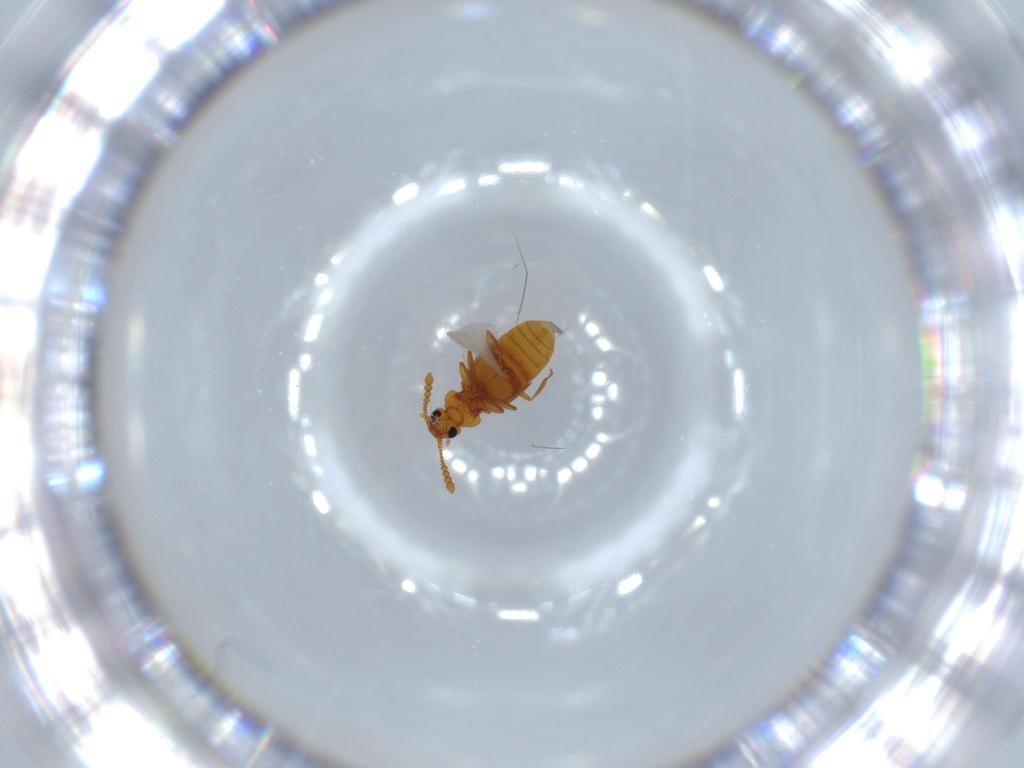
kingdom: Animalia
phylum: Arthropoda
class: Insecta
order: Coleoptera
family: Staphylinidae
